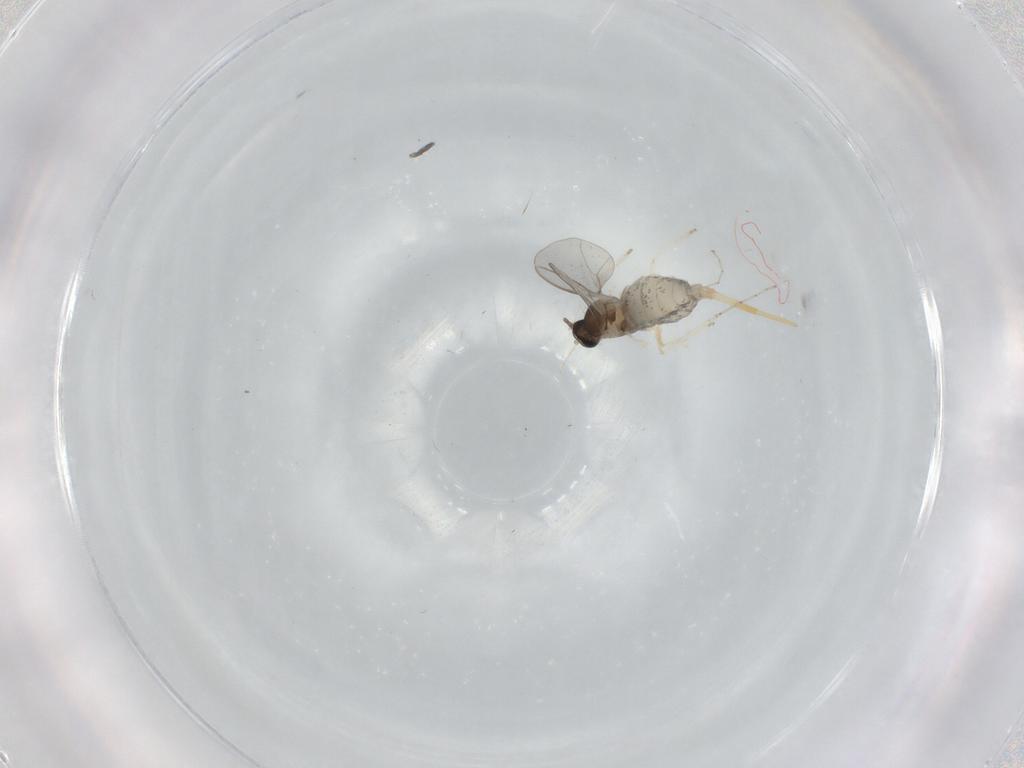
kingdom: Animalia
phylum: Arthropoda
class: Insecta
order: Diptera
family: Cecidomyiidae
